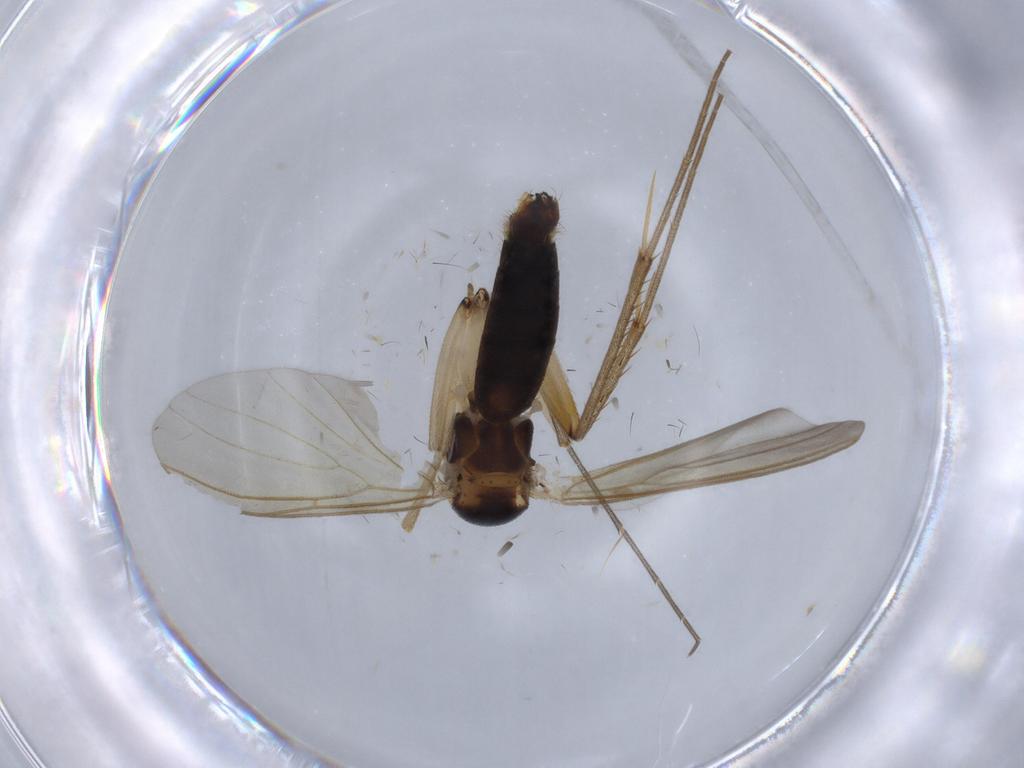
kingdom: Animalia
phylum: Arthropoda
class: Insecta
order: Diptera
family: Mycetophilidae
